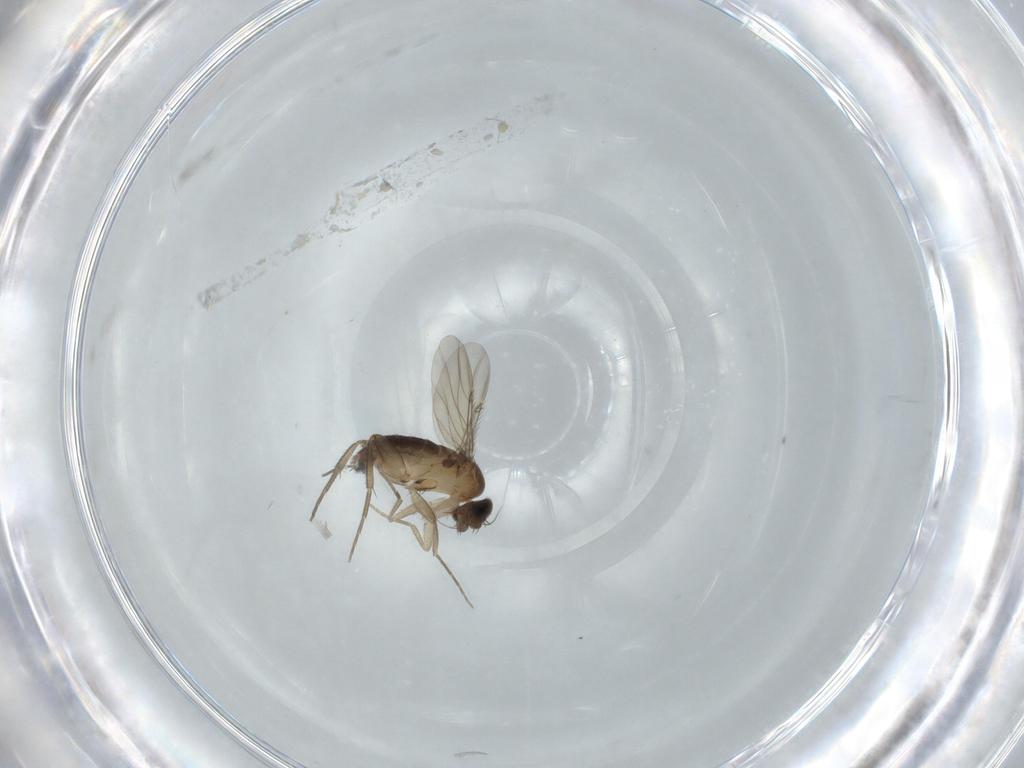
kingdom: Animalia
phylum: Arthropoda
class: Insecta
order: Diptera
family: Phoridae
